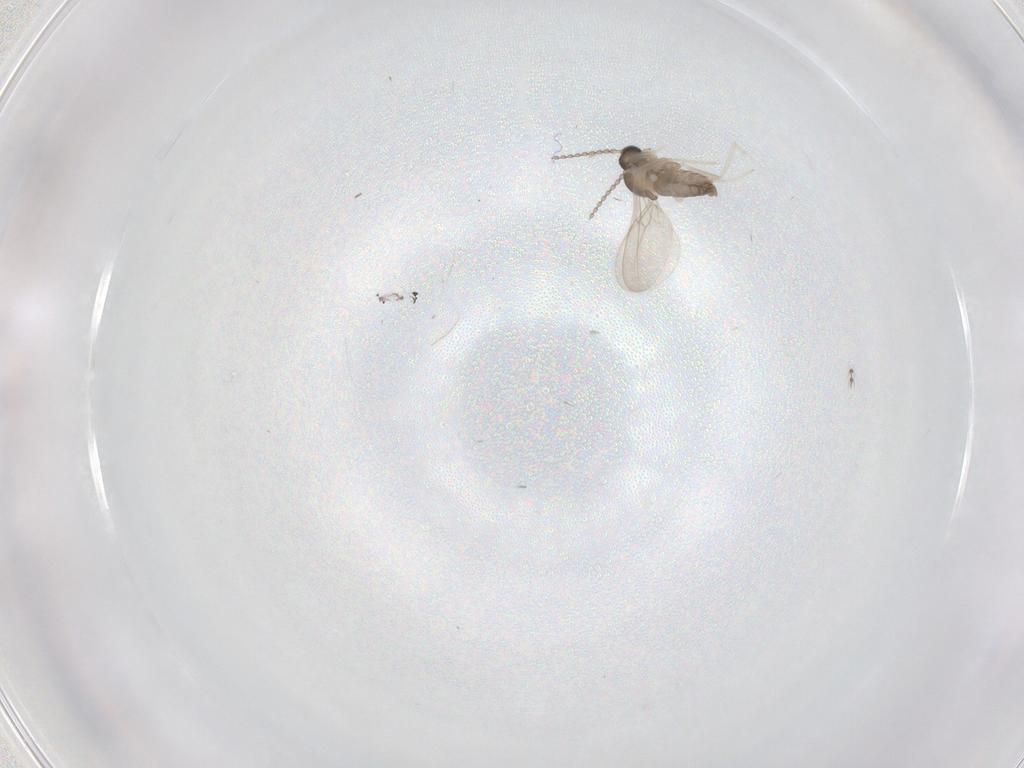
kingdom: Animalia
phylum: Arthropoda
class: Insecta
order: Diptera
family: Cecidomyiidae
